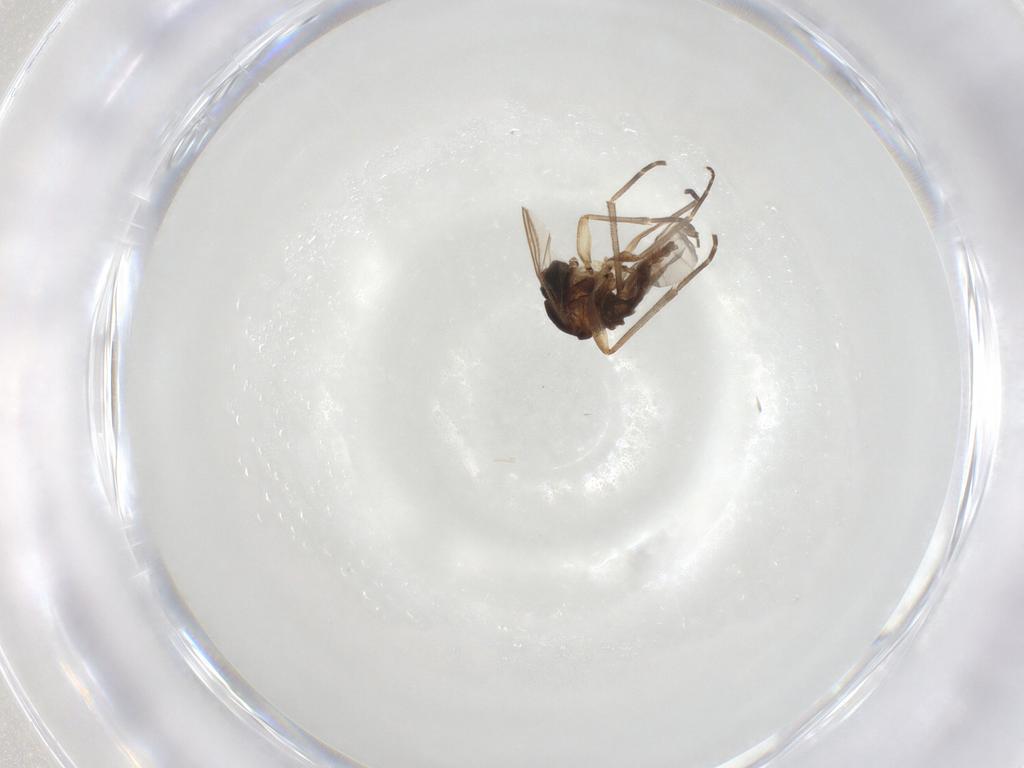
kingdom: Animalia
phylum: Arthropoda
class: Insecta
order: Diptera
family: Sciaridae
